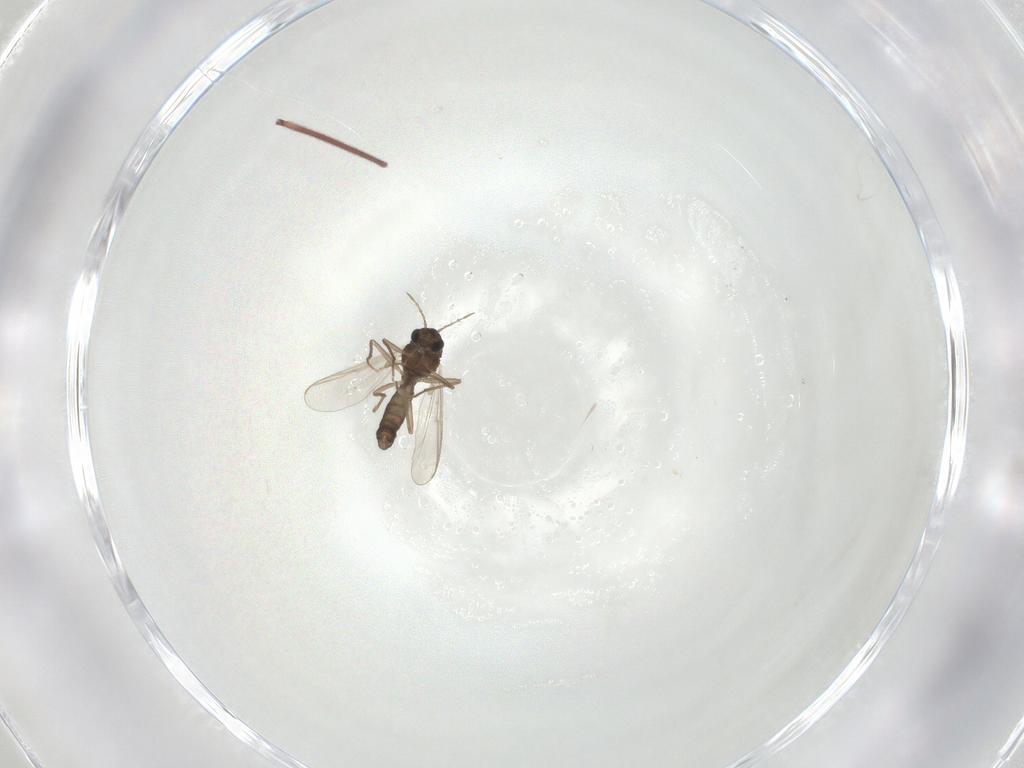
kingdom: Animalia
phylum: Arthropoda
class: Insecta
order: Diptera
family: Chironomidae
